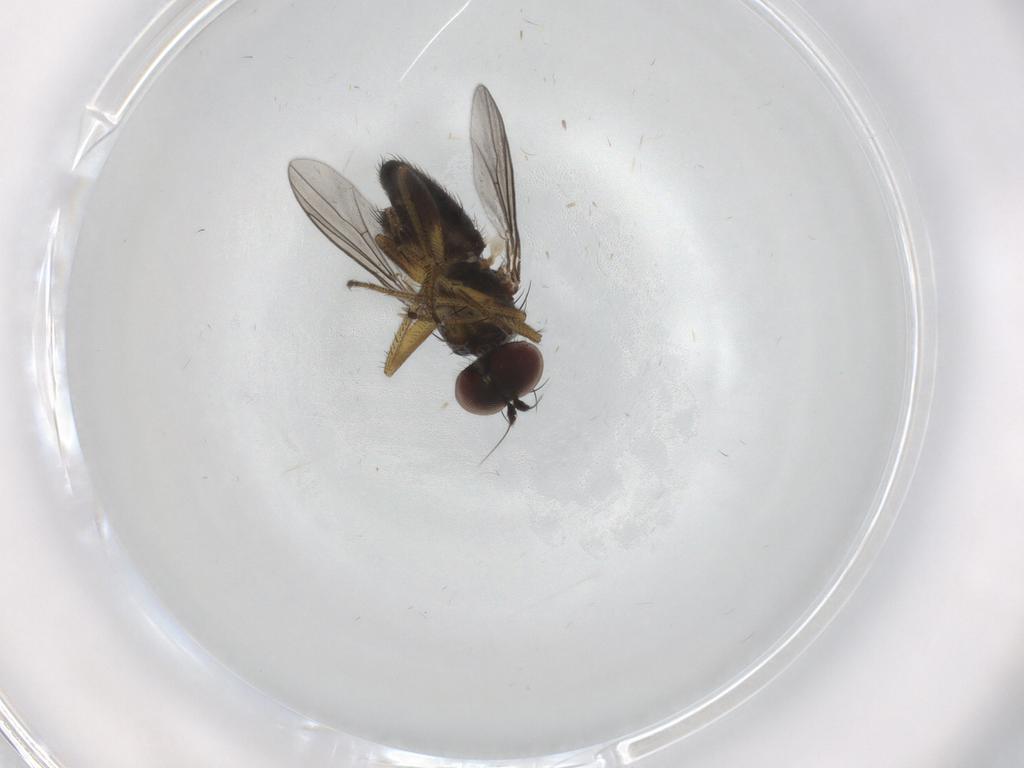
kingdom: Animalia
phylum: Arthropoda
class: Insecta
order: Diptera
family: Dolichopodidae
